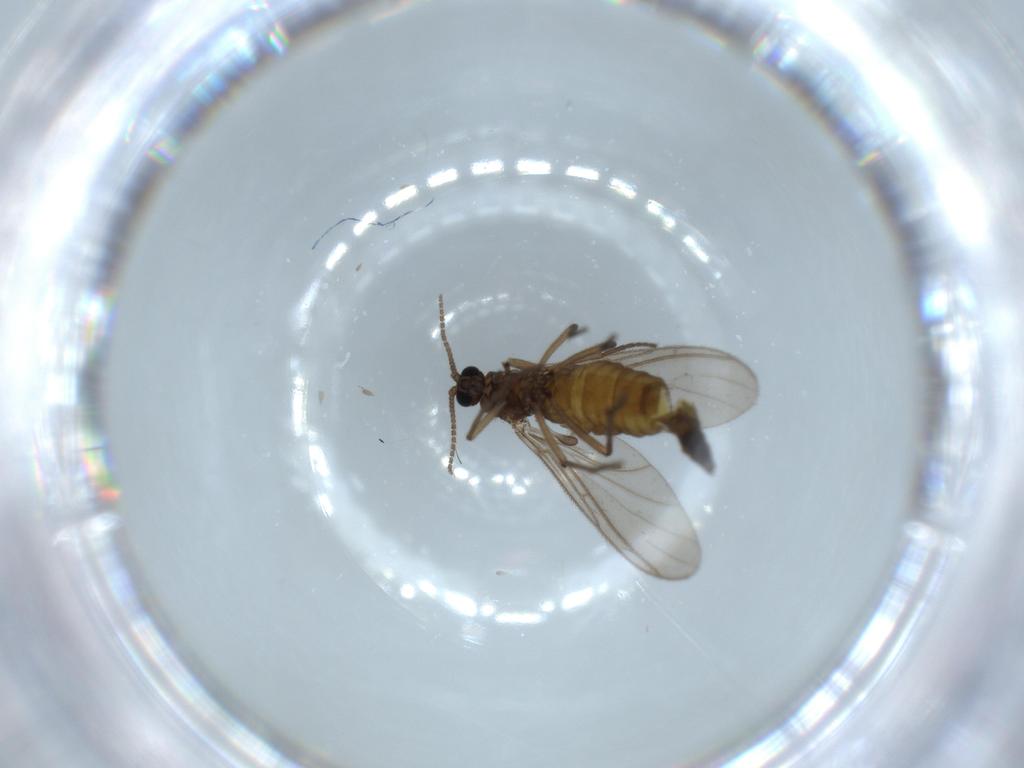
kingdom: Animalia
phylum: Arthropoda
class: Insecta
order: Diptera
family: Sciaridae
